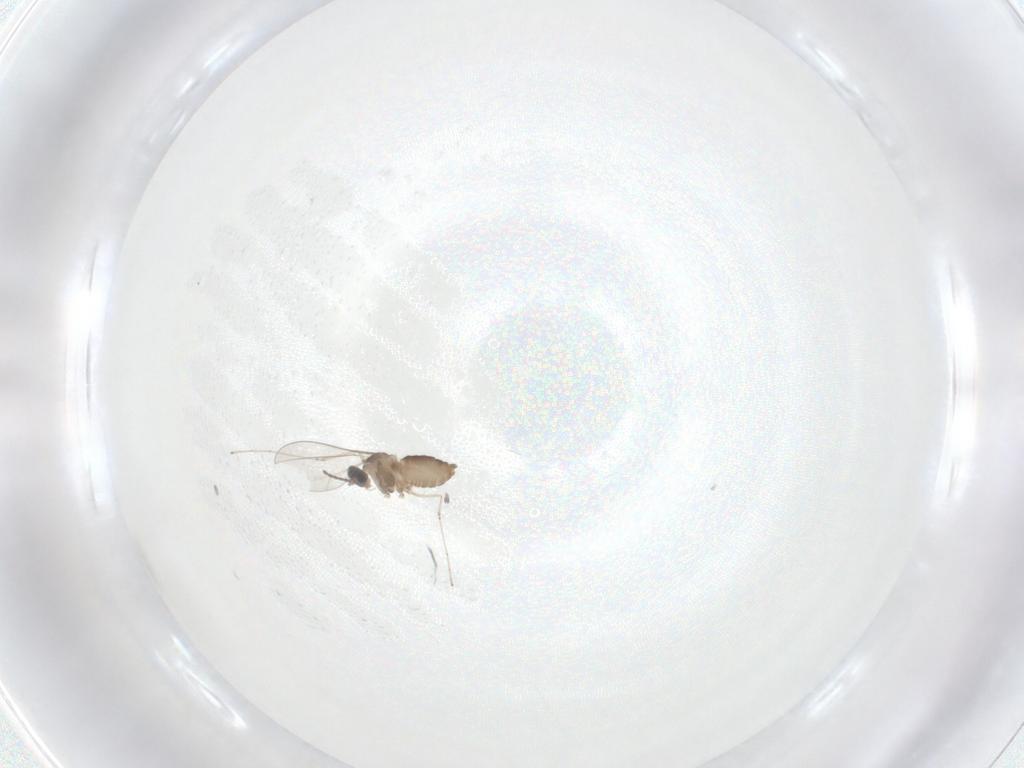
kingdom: Animalia
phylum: Arthropoda
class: Insecta
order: Diptera
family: Cecidomyiidae
